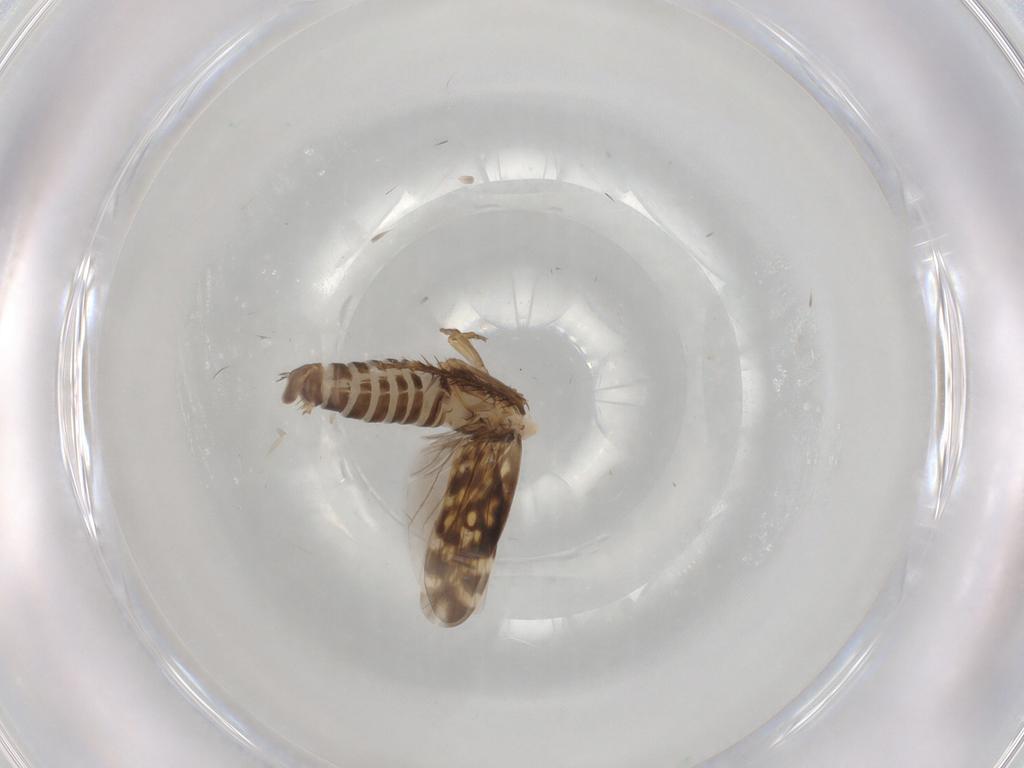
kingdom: Animalia
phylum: Arthropoda
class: Insecta
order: Hemiptera
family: Cicadellidae
